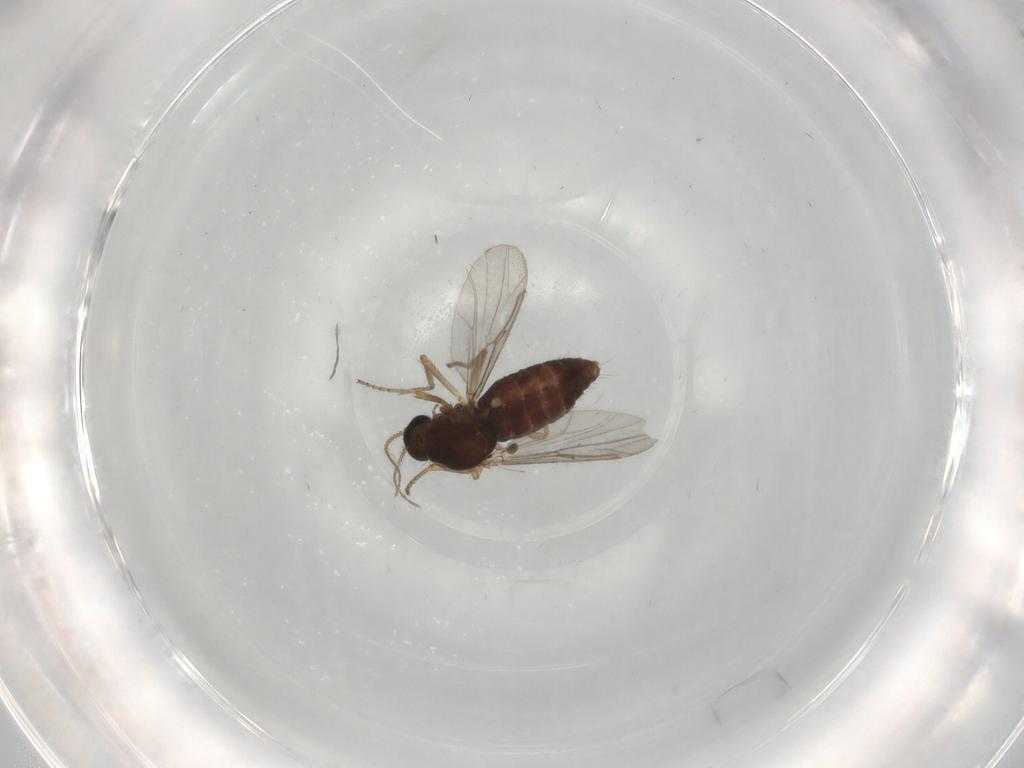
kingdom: Animalia
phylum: Arthropoda
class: Insecta
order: Diptera
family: Ceratopogonidae
